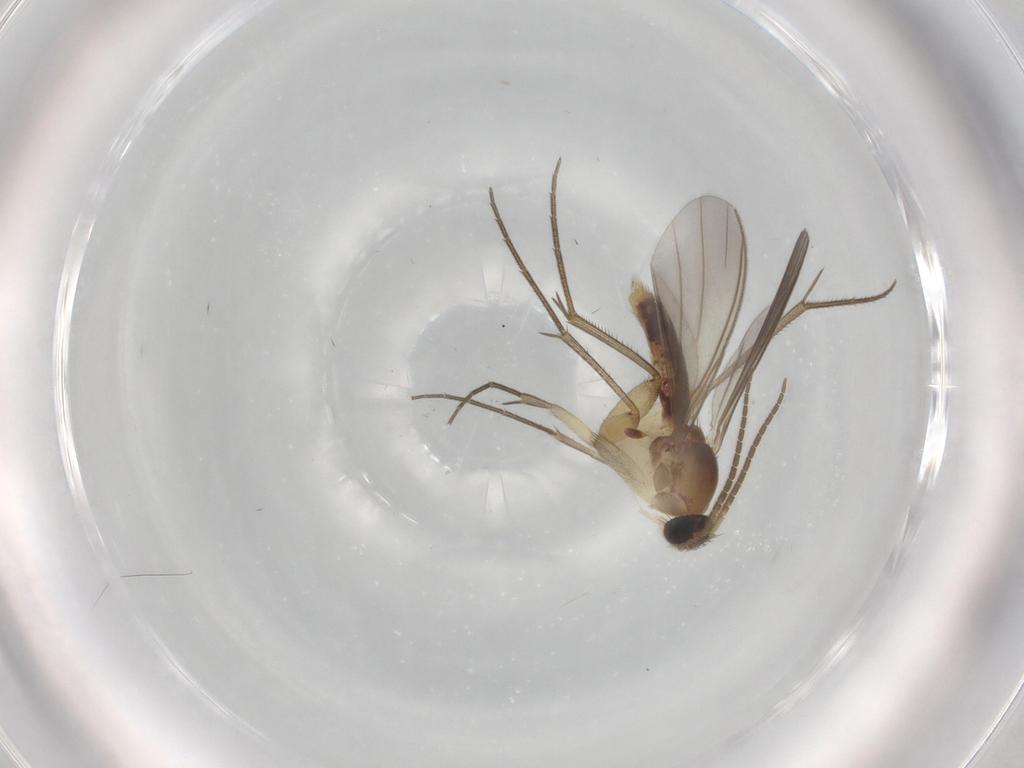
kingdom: Animalia
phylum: Arthropoda
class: Insecta
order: Diptera
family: Mycetophilidae
